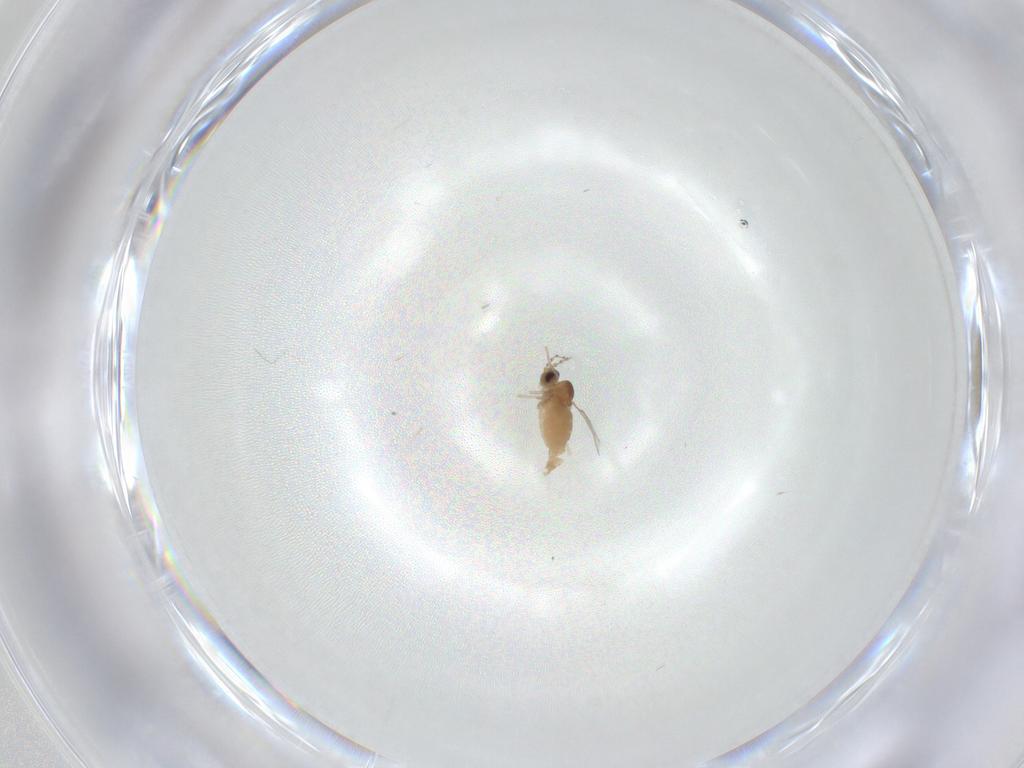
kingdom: Animalia
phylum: Arthropoda
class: Insecta
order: Diptera
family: Cecidomyiidae
